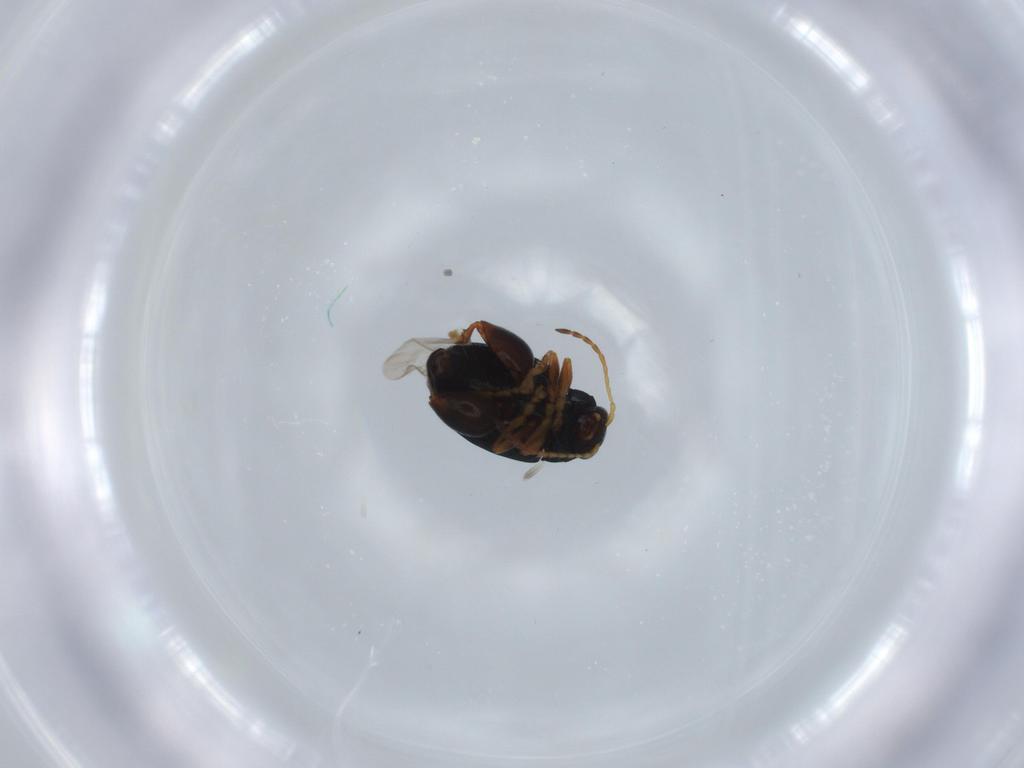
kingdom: Animalia
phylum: Arthropoda
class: Insecta
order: Coleoptera
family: Chrysomelidae
